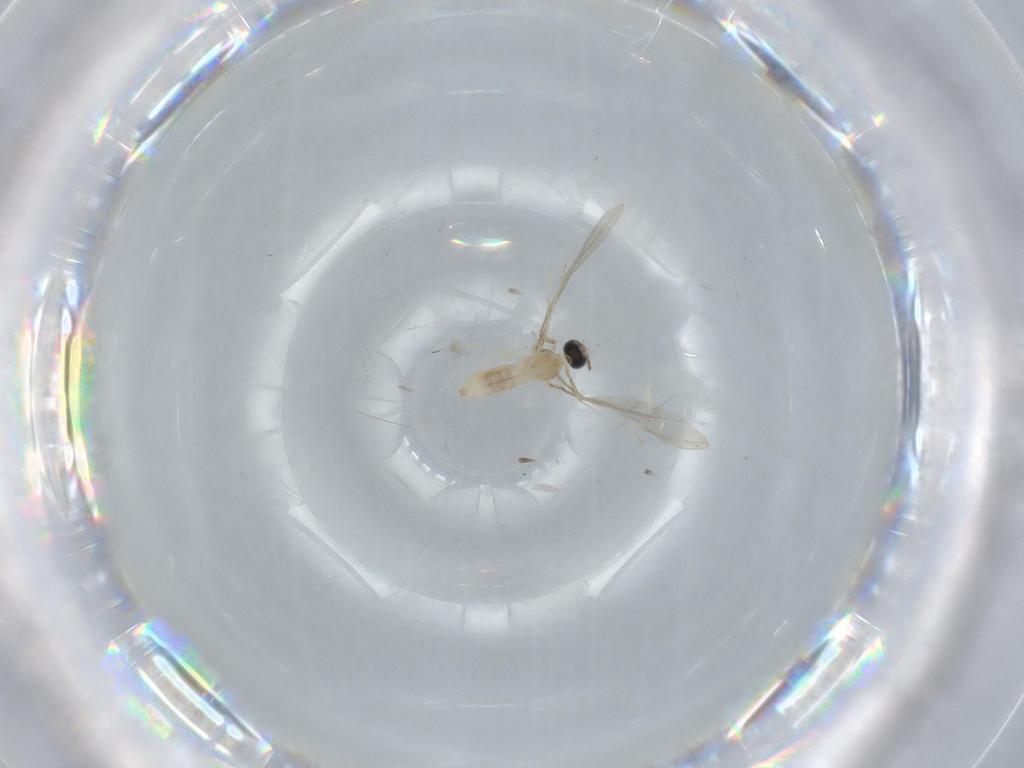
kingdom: Animalia
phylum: Arthropoda
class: Insecta
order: Diptera
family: Cecidomyiidae
